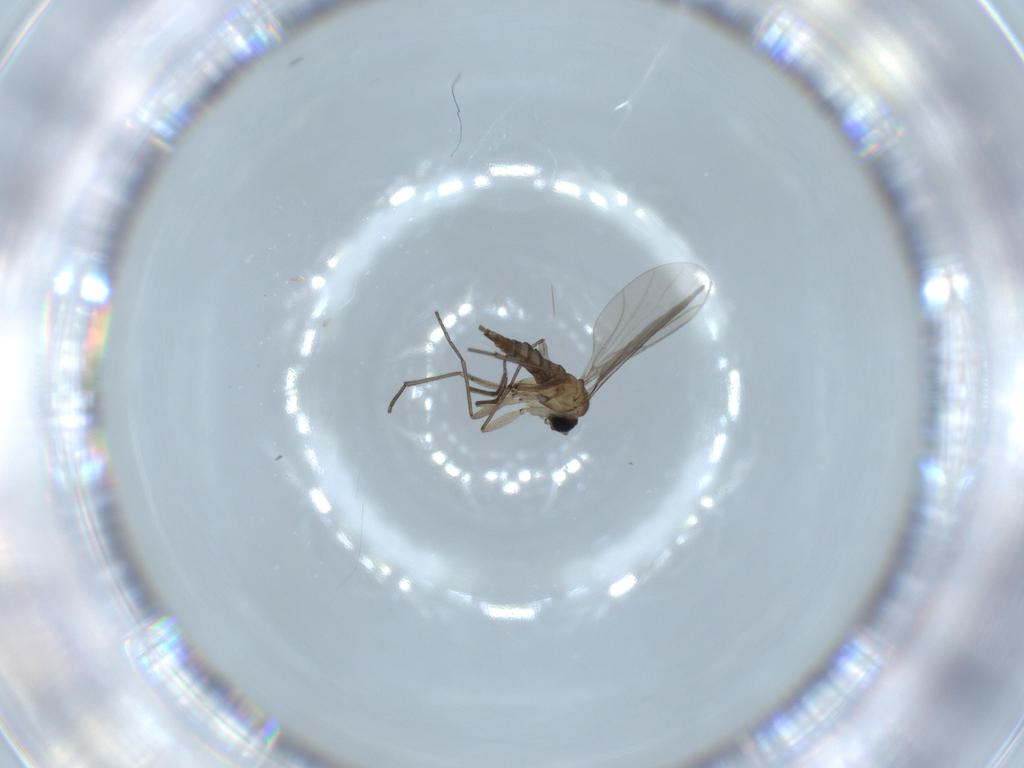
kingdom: Animalia
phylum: Arthropoda
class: Insecta
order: Diptera
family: Sciaridae
